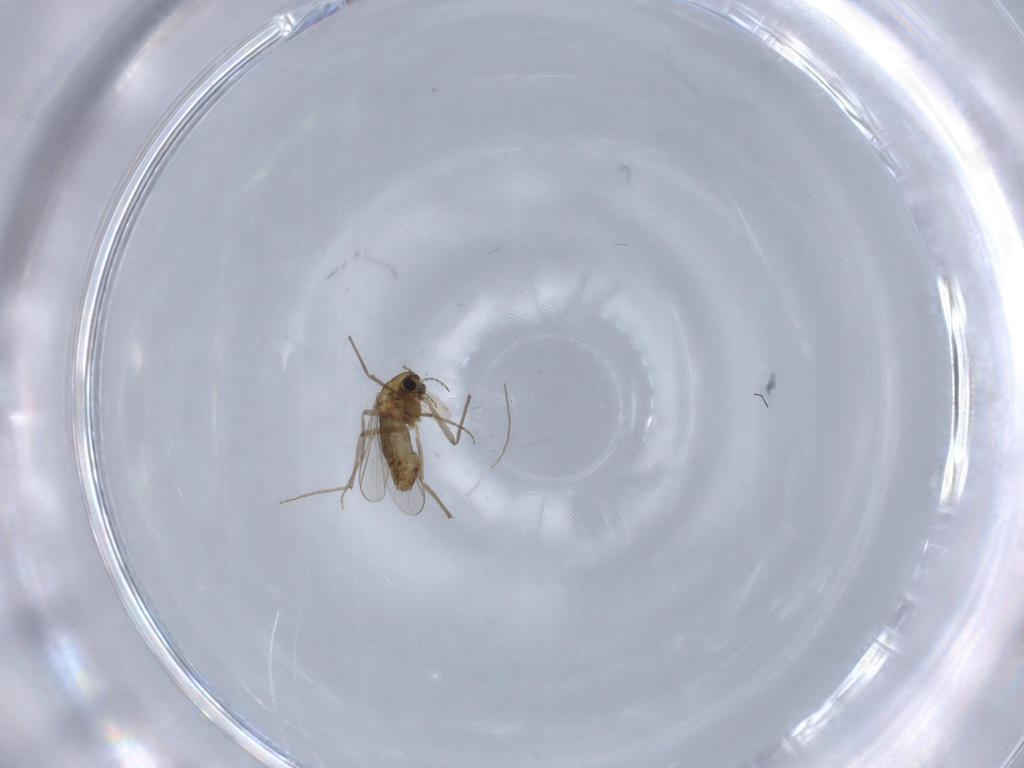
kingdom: Animalia
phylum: Arthropoda
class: Insecta
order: Diptera
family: Chironomidae
